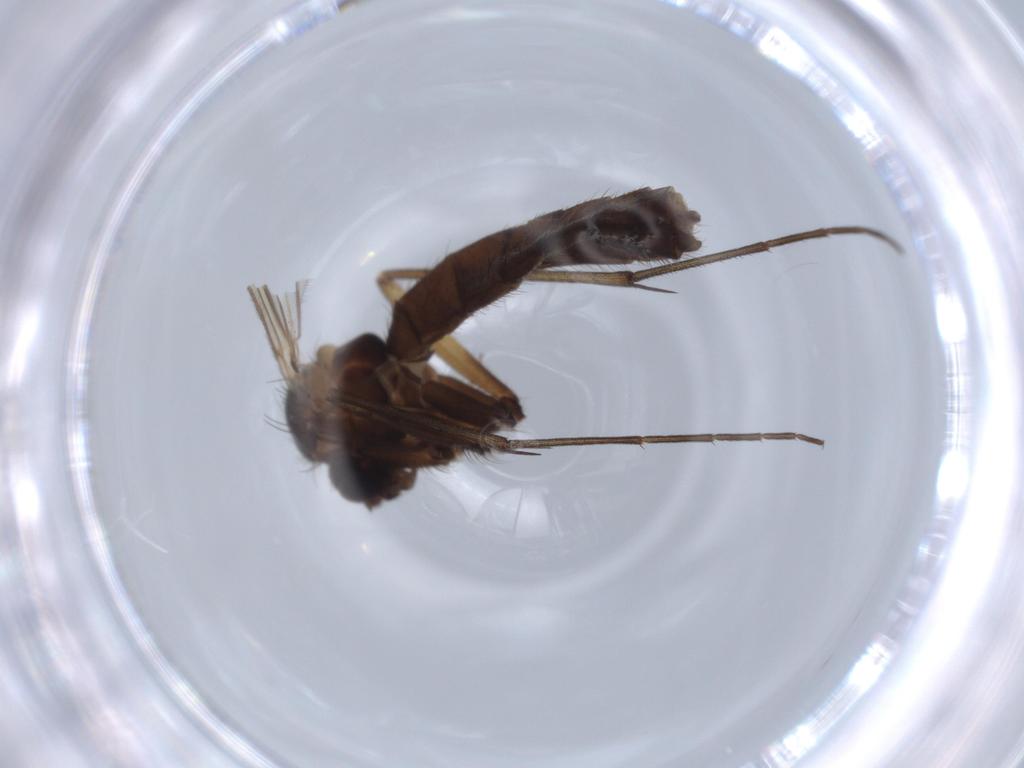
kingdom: Animalia
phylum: Arthropoda
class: Insecta
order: Diptera
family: Mycetophilidae
